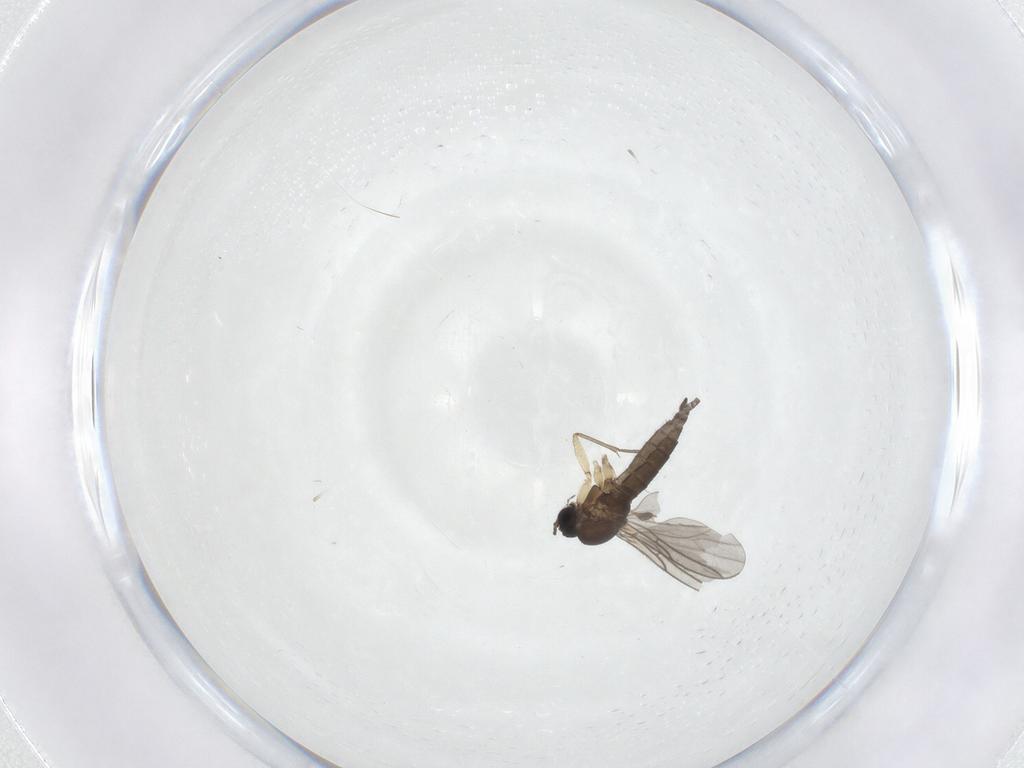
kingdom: Animalia
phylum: Arthropoda
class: Insecta
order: Diptera
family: Sciaridae
